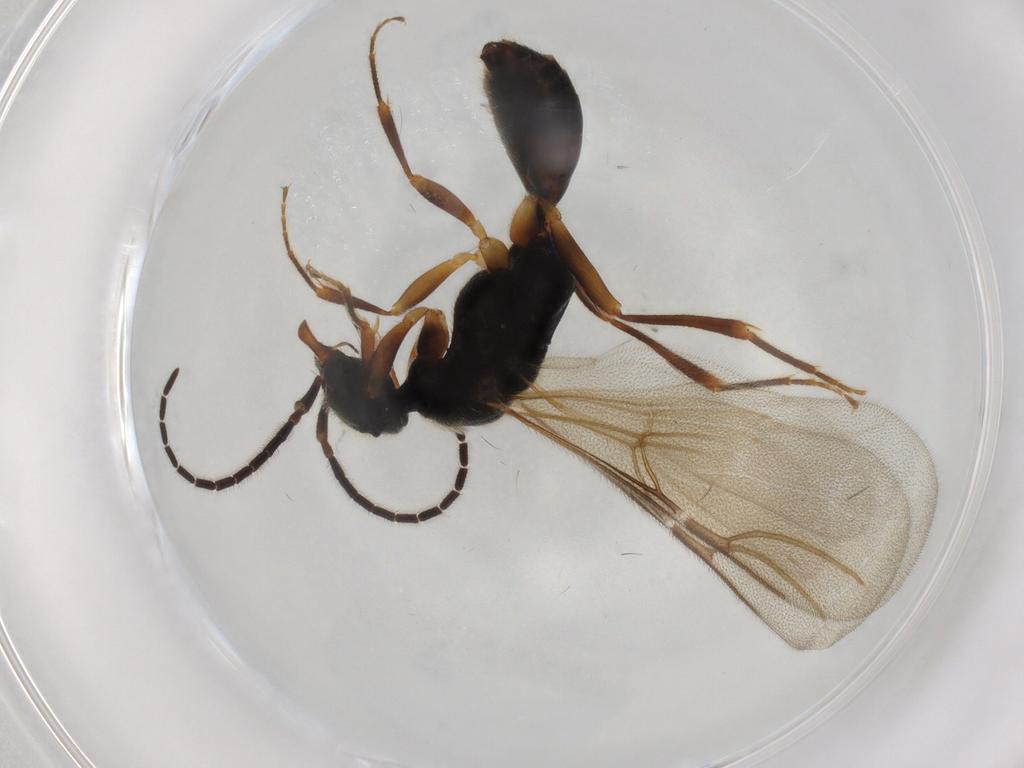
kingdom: Animalia
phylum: Arthropoda
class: Insecta
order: Hymenoptera
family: Bethylidae
